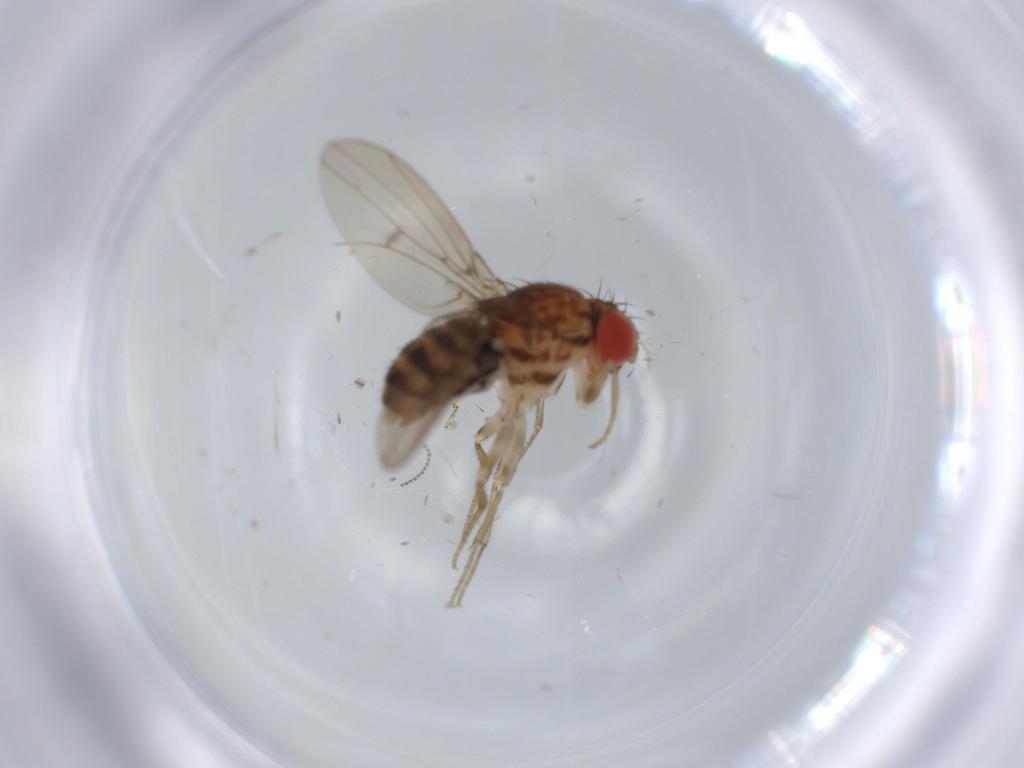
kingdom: Animalia
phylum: Arthropoda
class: Insecta
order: Diptera
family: Drosophilidae
